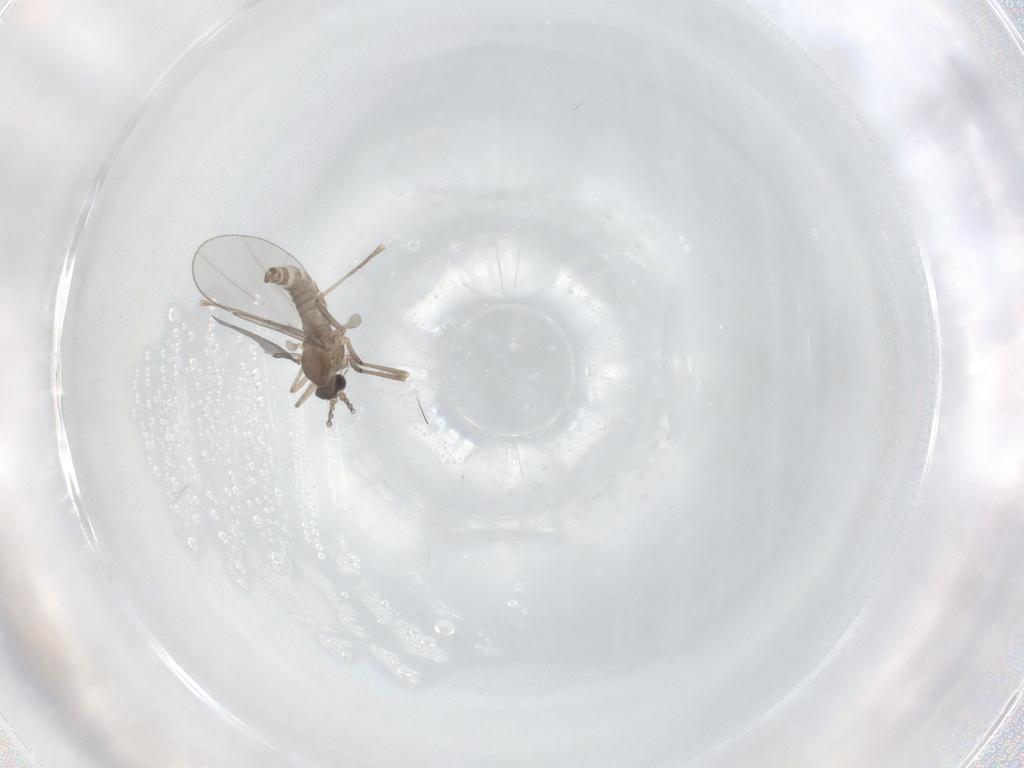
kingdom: Animalia
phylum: Arthropoda
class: Insecta
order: Diptera
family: Cecidomyiidae
